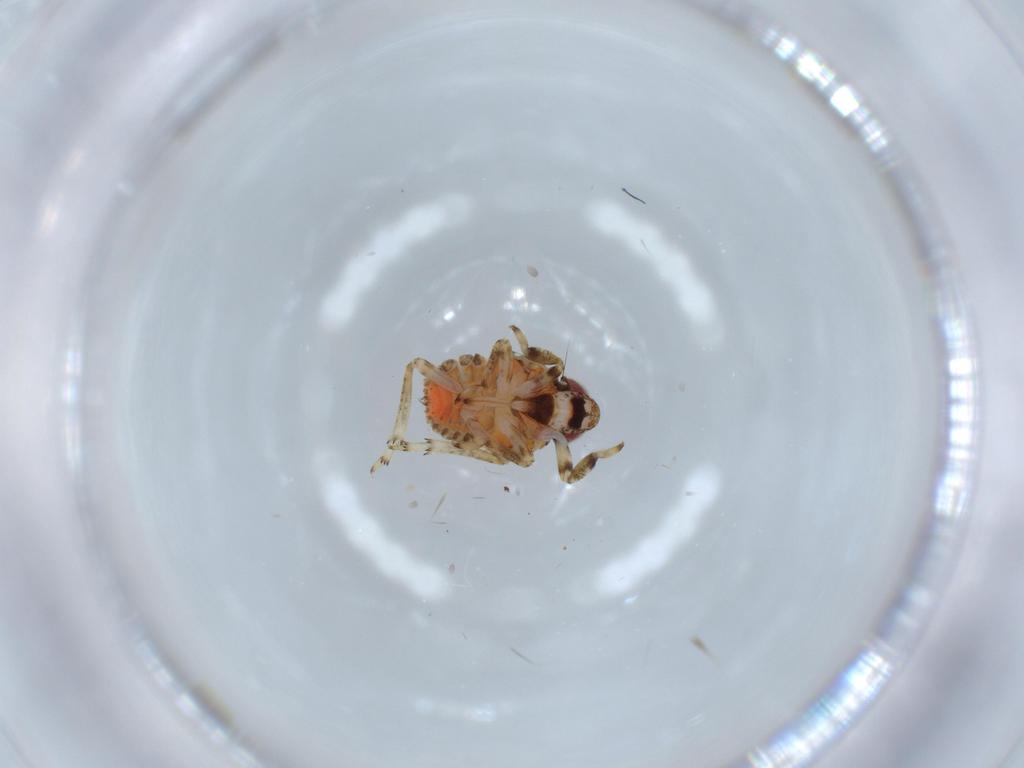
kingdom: Animalia
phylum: Arthropoda
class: Insecta
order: Hemiptera
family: Issidae
